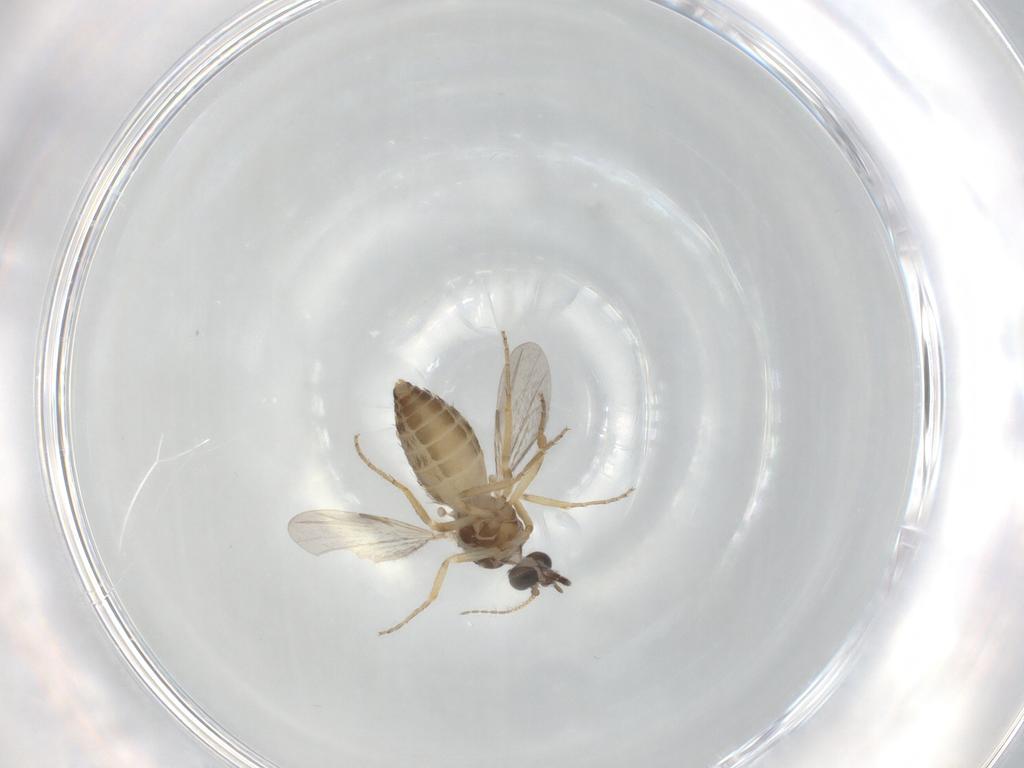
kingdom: Animalia
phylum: Arthropoda
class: Insecta
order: Diptera
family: Ceratopogonidae
